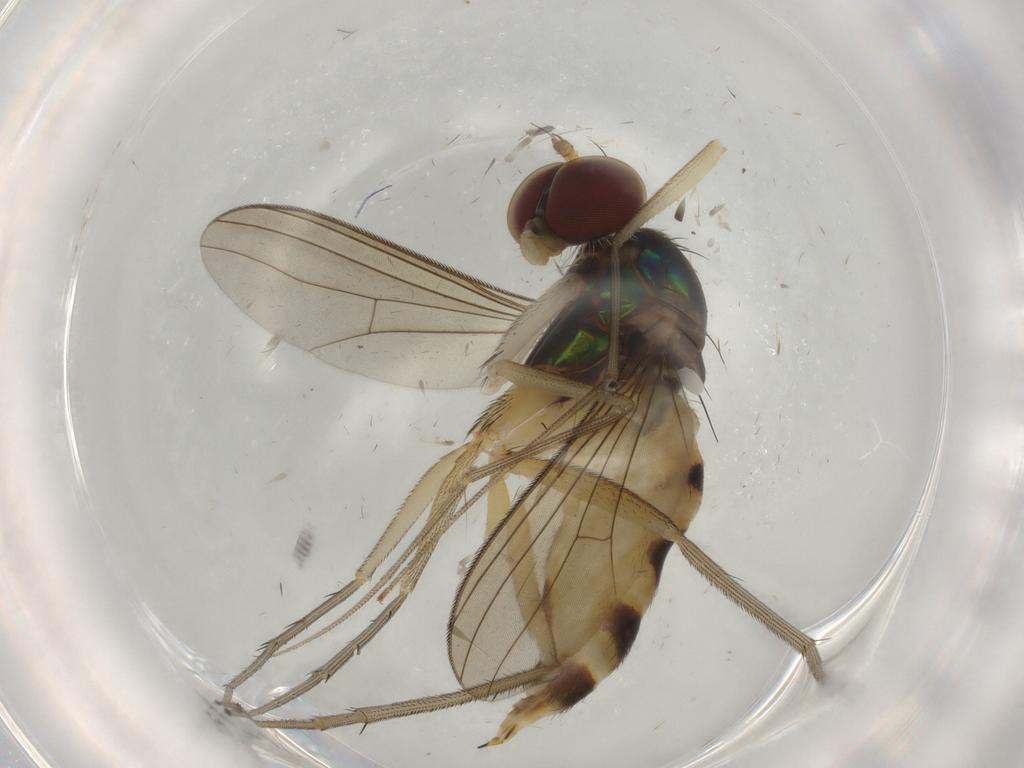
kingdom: Animalia
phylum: Arthropoda
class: Insecta
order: Diptera
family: Dolichopodidae
